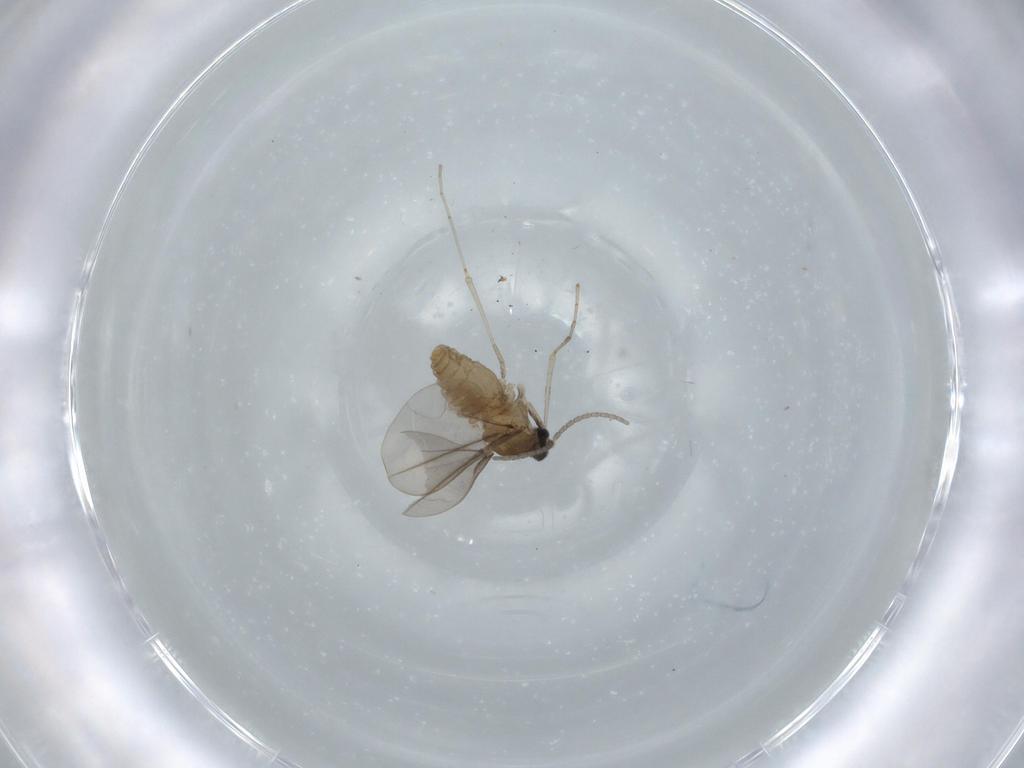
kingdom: Animalia
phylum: Arthropoda
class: Insecta
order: Diptera
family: Cecidomyiidae
